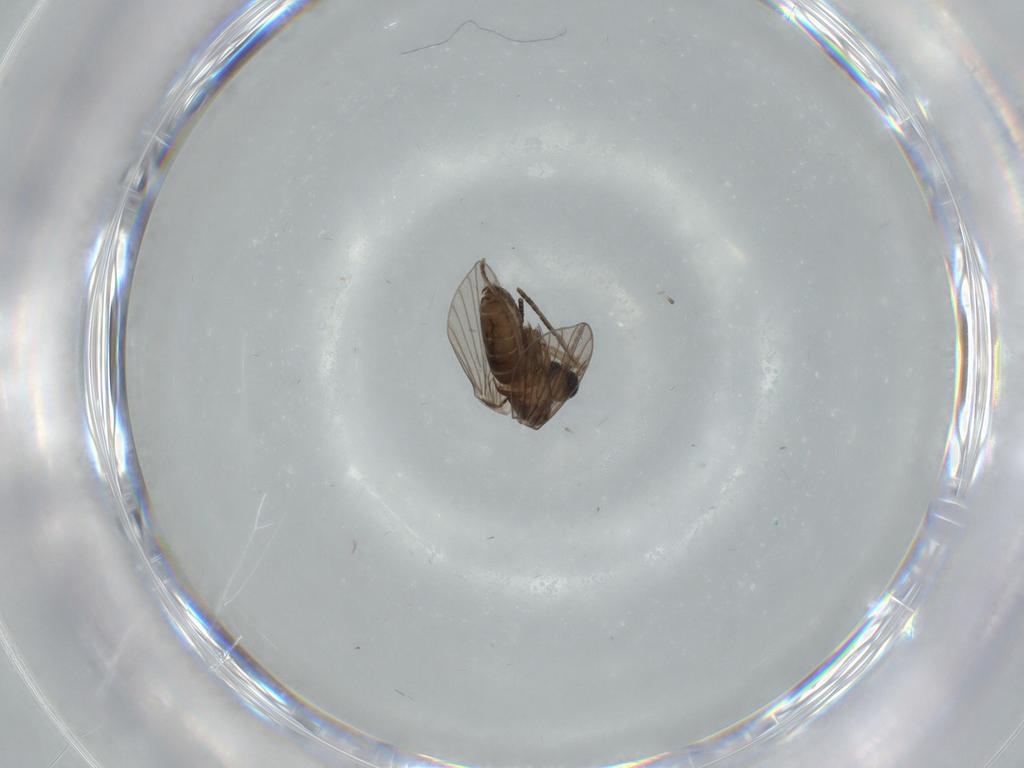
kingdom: Animalia
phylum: Arthropoda
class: Insecta
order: Diptera
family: Psychodidae
